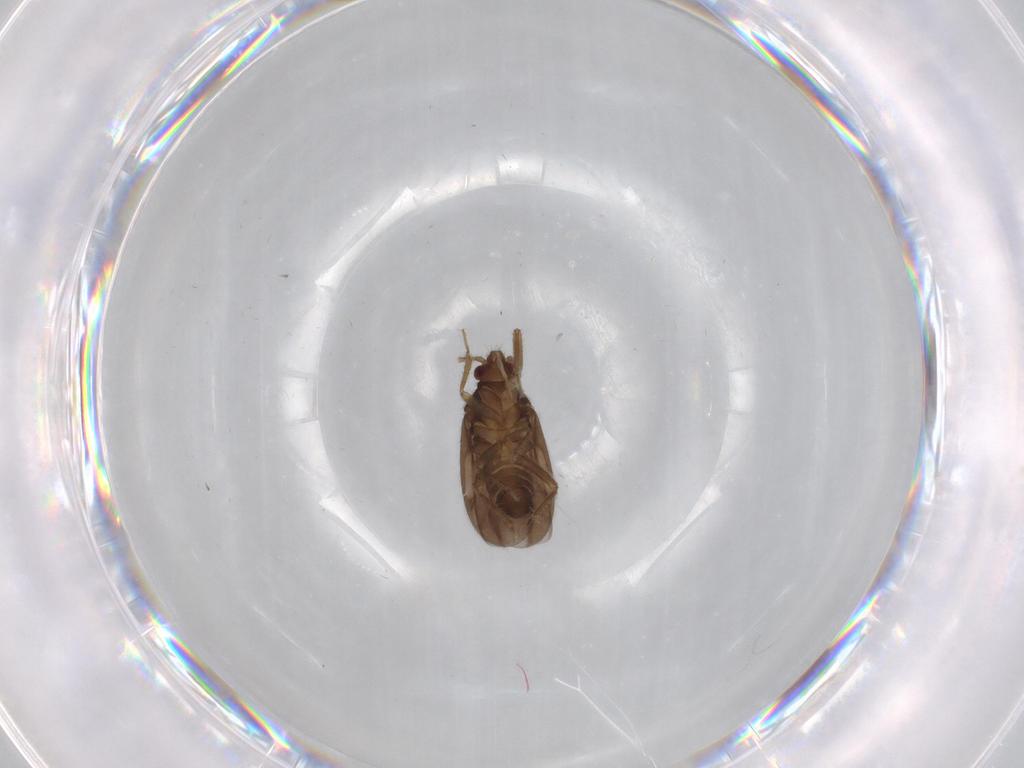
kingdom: Animalia
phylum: Arthropoda
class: Insecta
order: Hemiptera
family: Ceratocombidae
